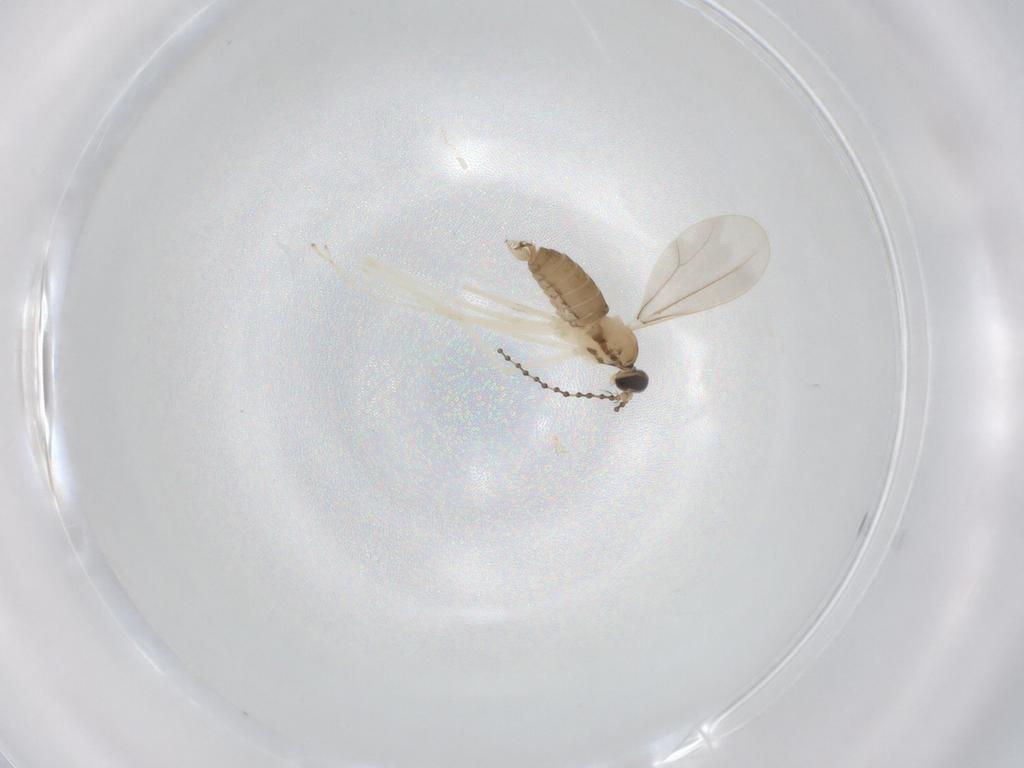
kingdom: Animalia
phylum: Arthropoda
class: Insecta
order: Diptera
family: Cecidomyiidae
